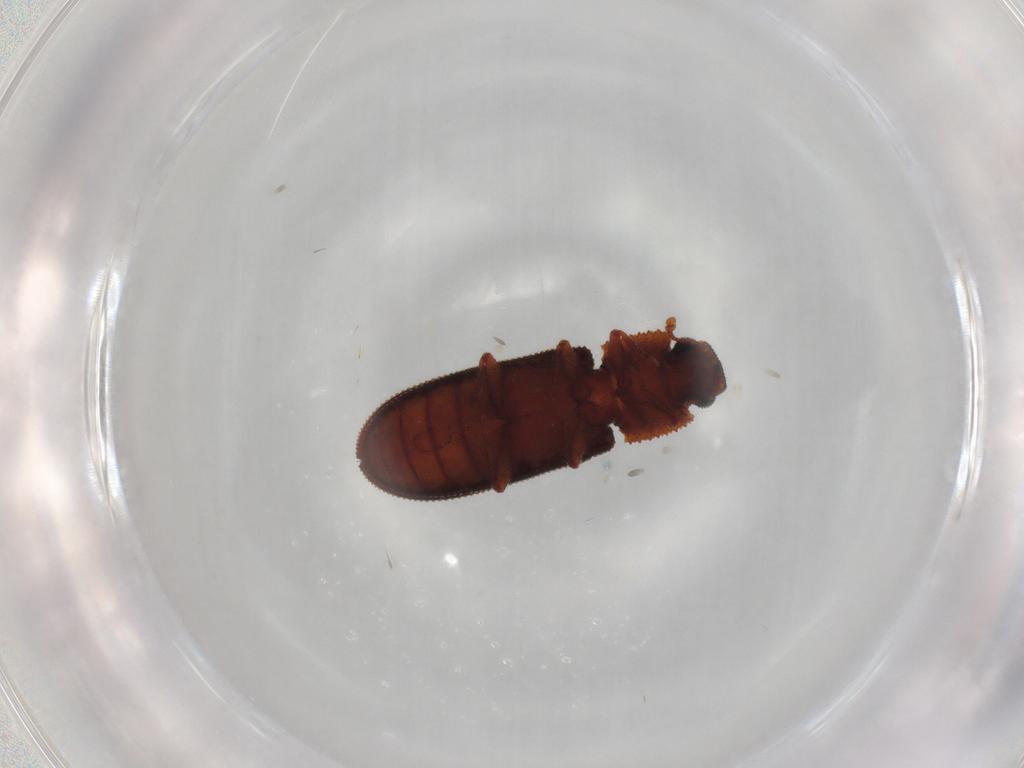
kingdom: Animalia
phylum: Arthropoda
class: Insecta
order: Coleoptera
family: Zopheridae
